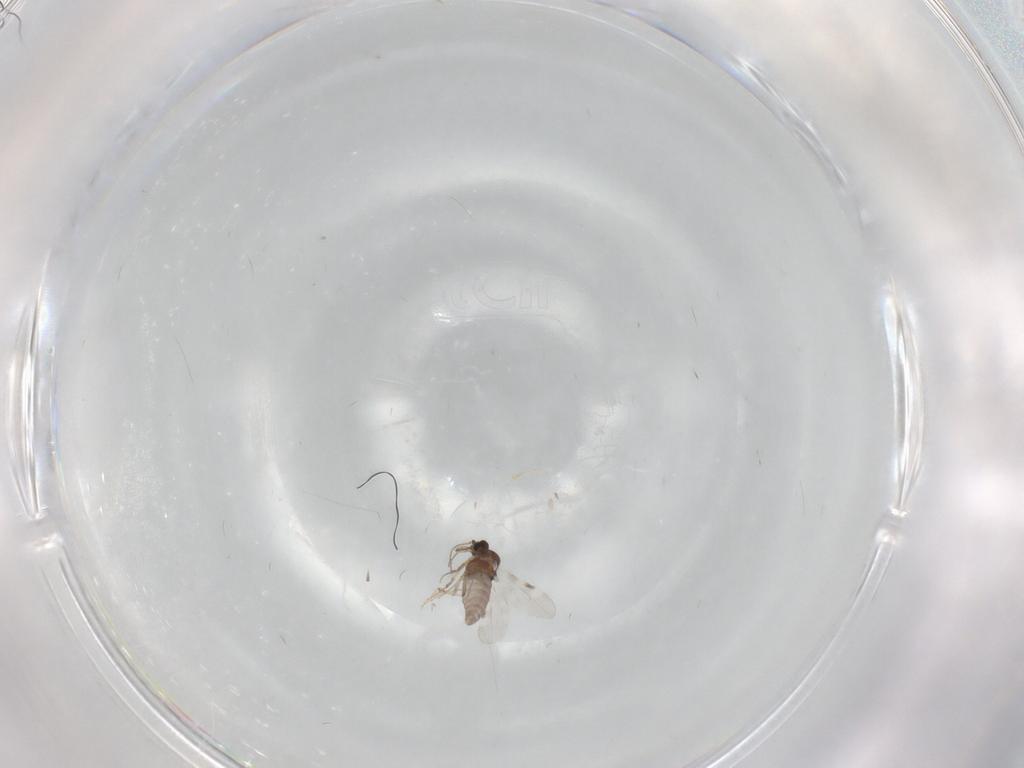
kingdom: Animalia
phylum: Arthropoda
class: Insecta
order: Diptera
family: Cecidomyiidae
